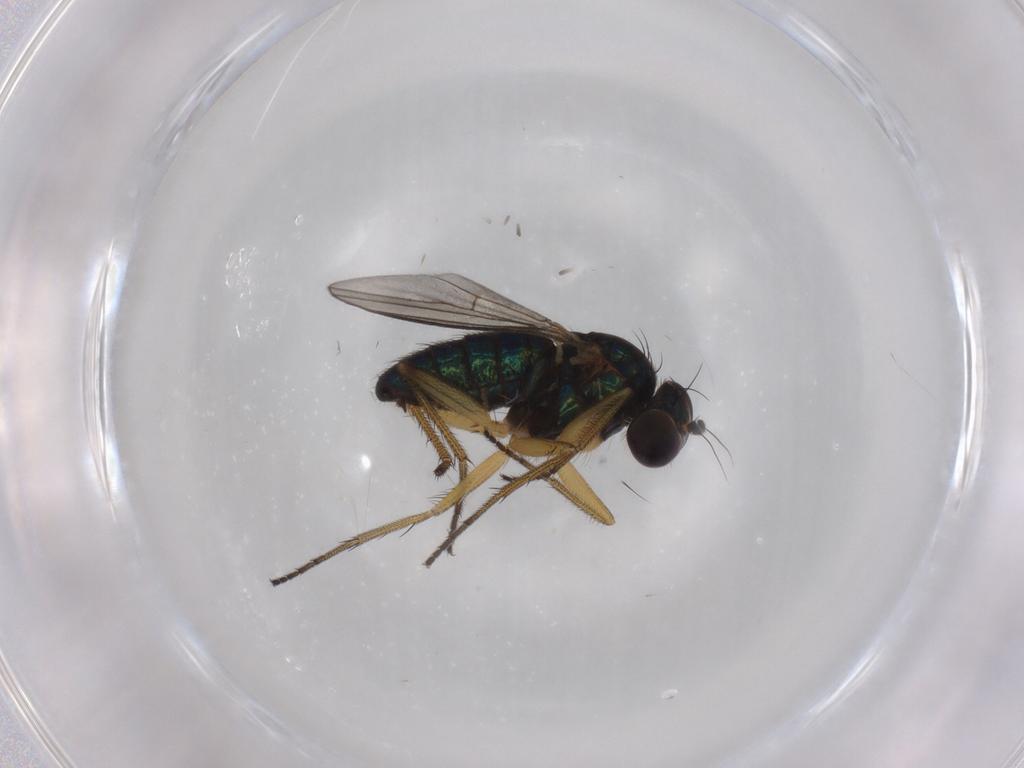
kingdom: Animalia
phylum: Arthropoda
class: Insecta
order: Diptera
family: Dolichopodidae
